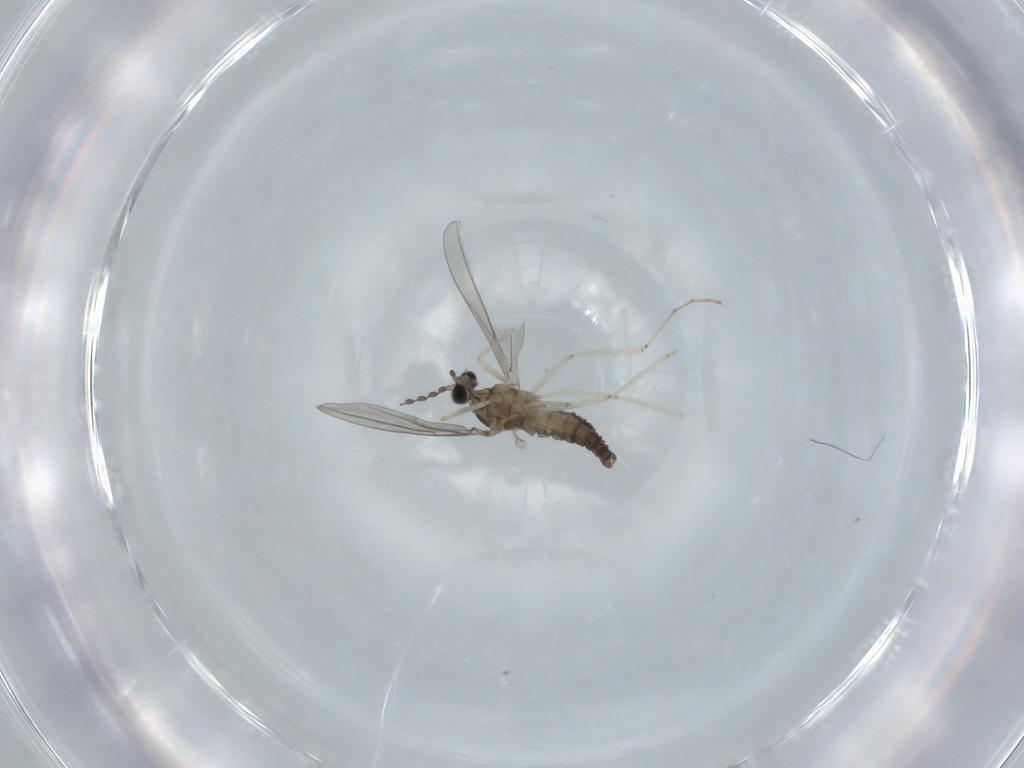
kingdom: Animalia
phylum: Arthropoda
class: Insecta
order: Diptera
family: Cecidomyiidae
